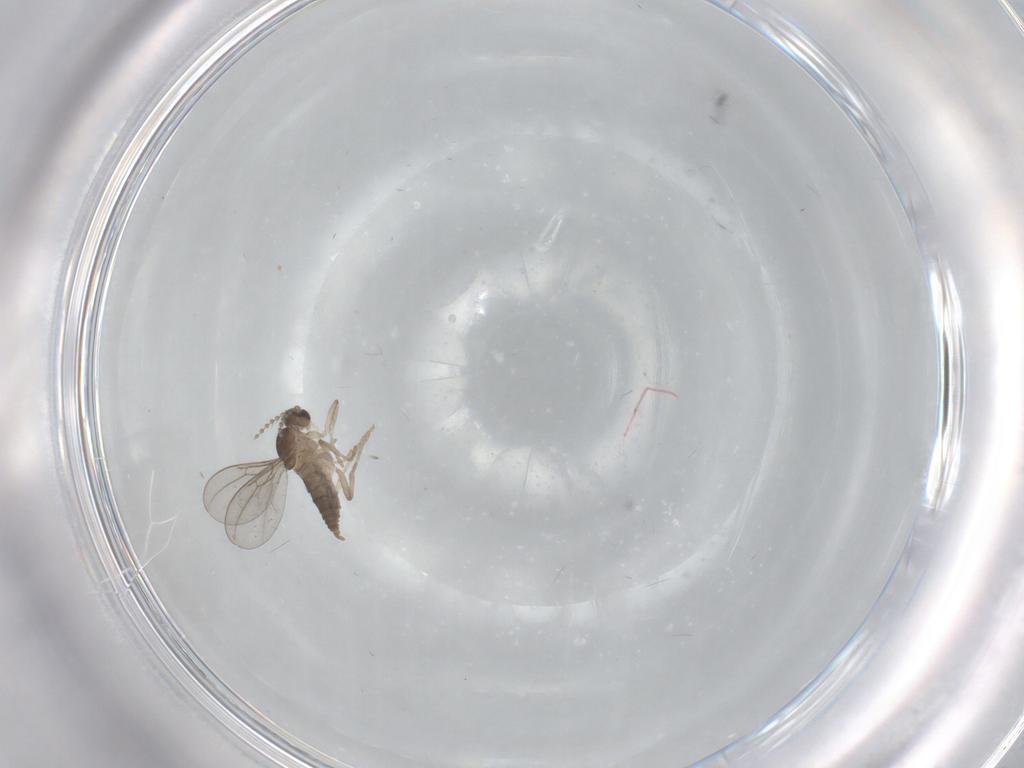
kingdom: Animalia
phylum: Arthropoda
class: Insecta
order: Diptera
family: Cecidomyiidae
